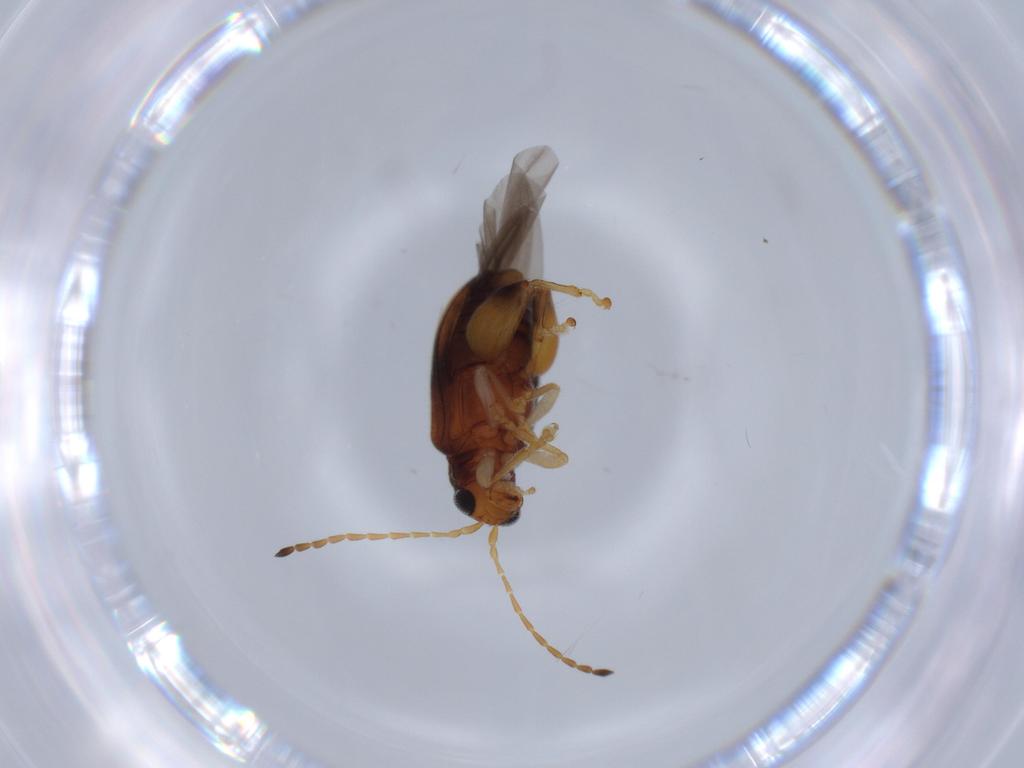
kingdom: Animalia
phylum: Arthropoda
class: Insecta
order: Coleoptera
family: Chrysomelidae
